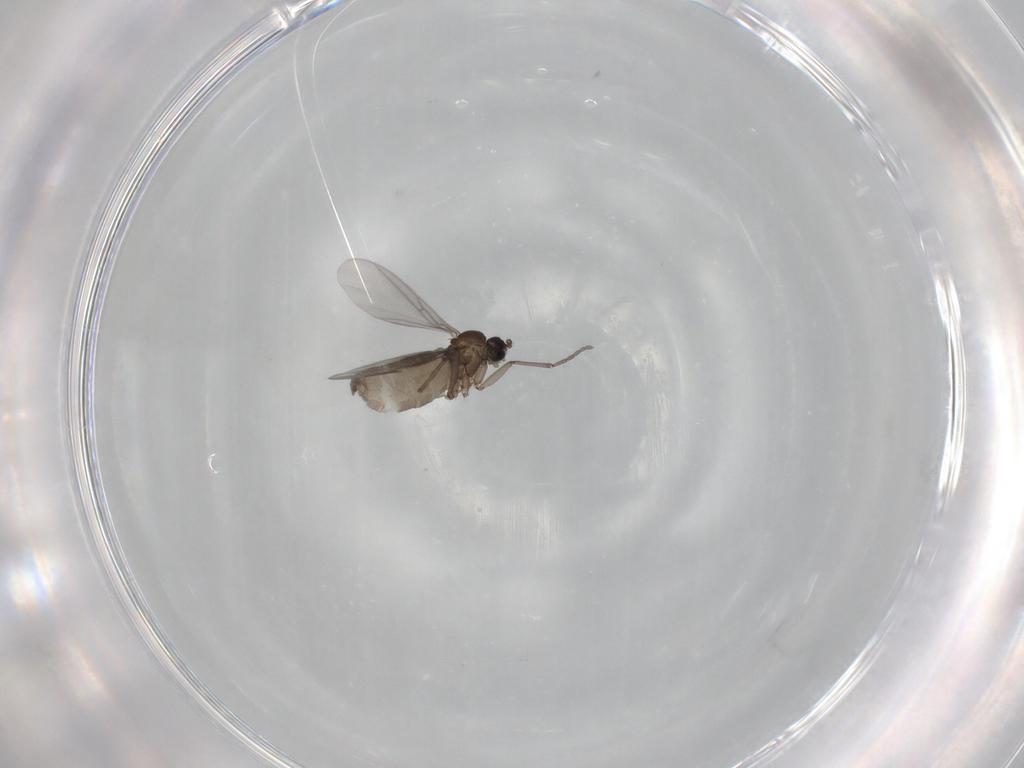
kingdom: Animalia
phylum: Arthropoda
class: Insecta
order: Diptera
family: Sciaridae
